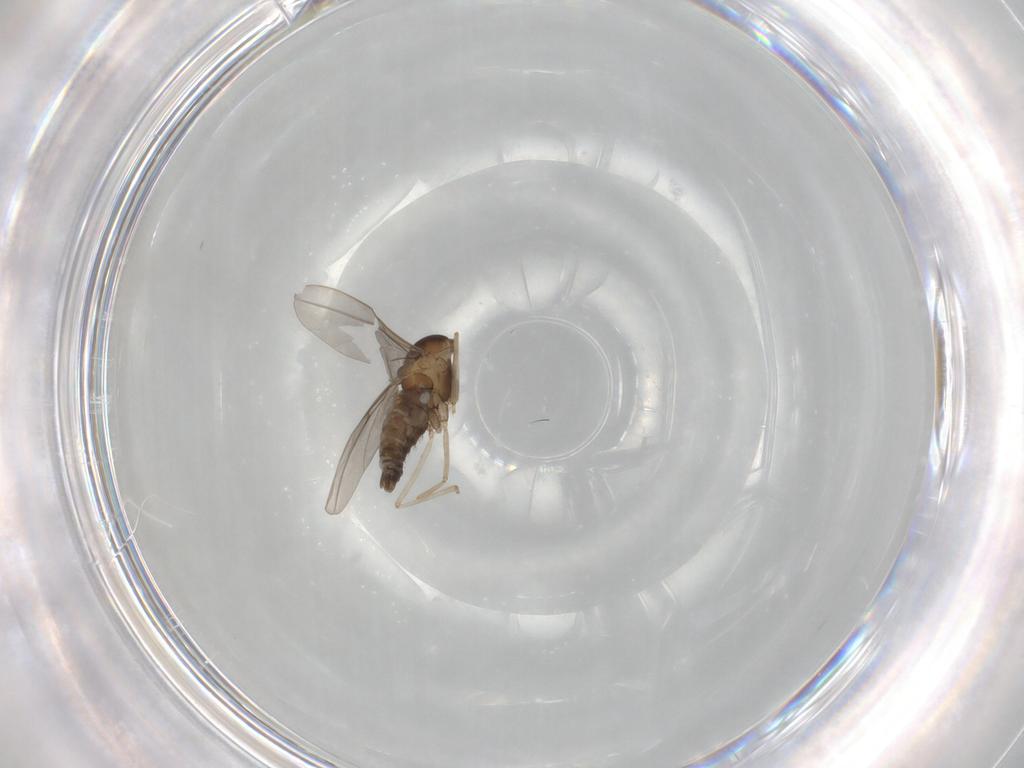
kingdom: Animalia
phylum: Arthropoda
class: Insecta
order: Diptera
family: Cecidomyiidae
